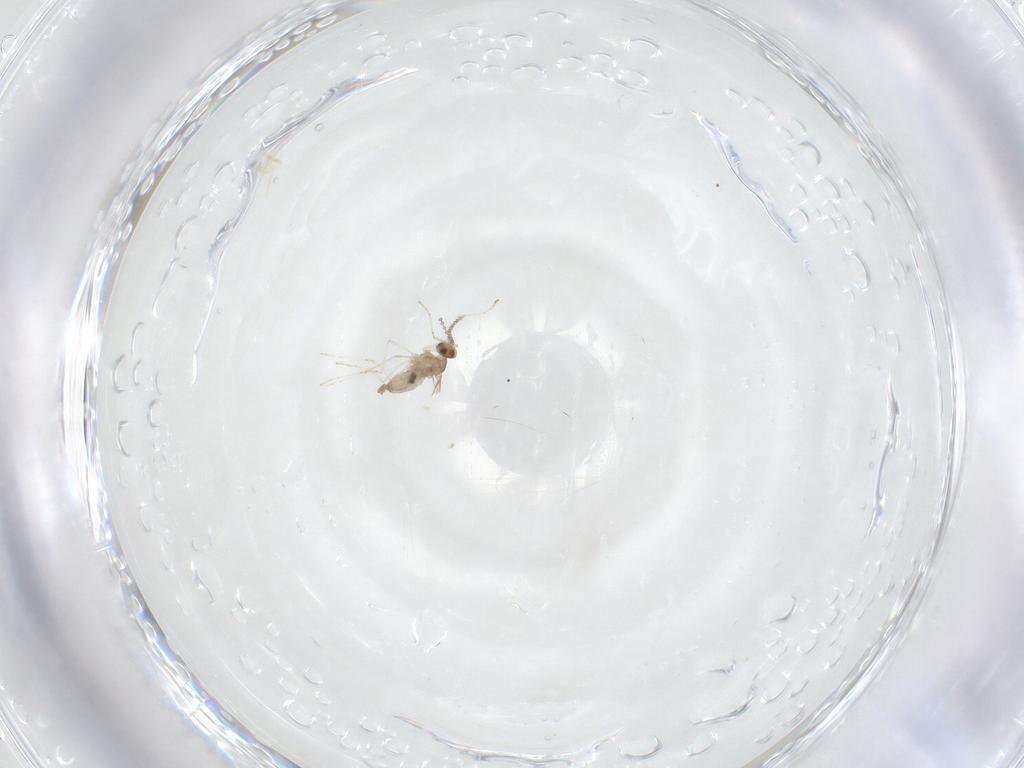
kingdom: Animalia
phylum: Arthropoda
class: Insecta
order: Diptera
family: Cecidomyiidae
